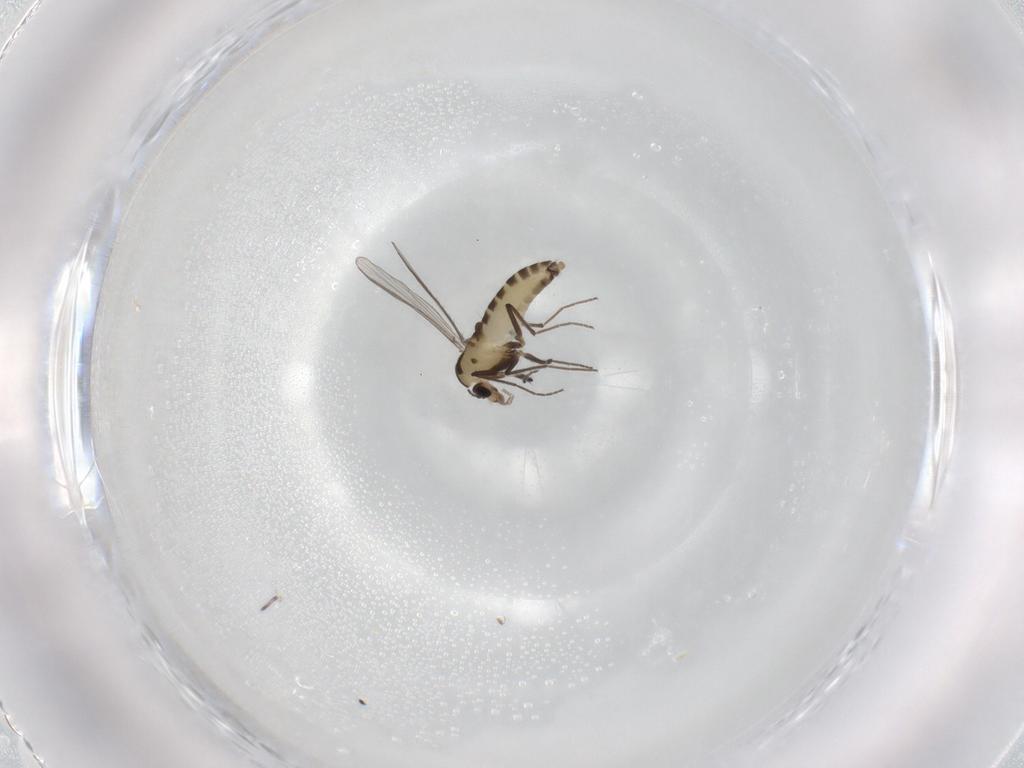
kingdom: Animalia
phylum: Arthropoda
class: Insecta
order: Diptera
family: Chironomidae
